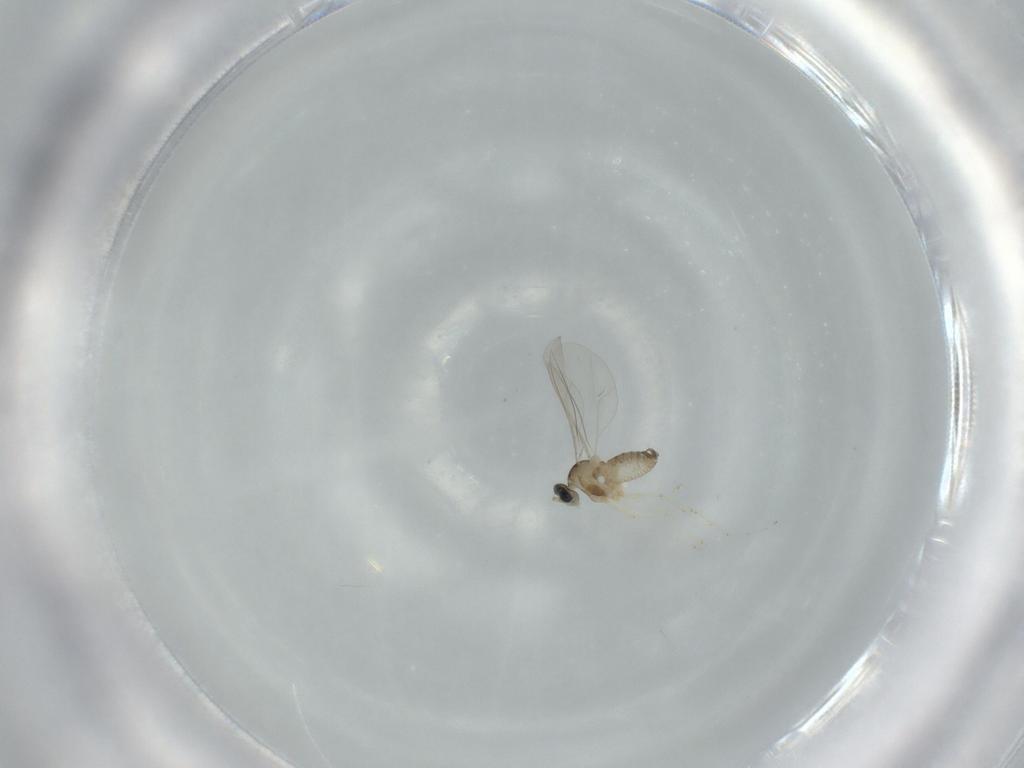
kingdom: Animalia
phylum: Arthropoda
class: Insecta
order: Diptera
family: Cecidomyiidae
